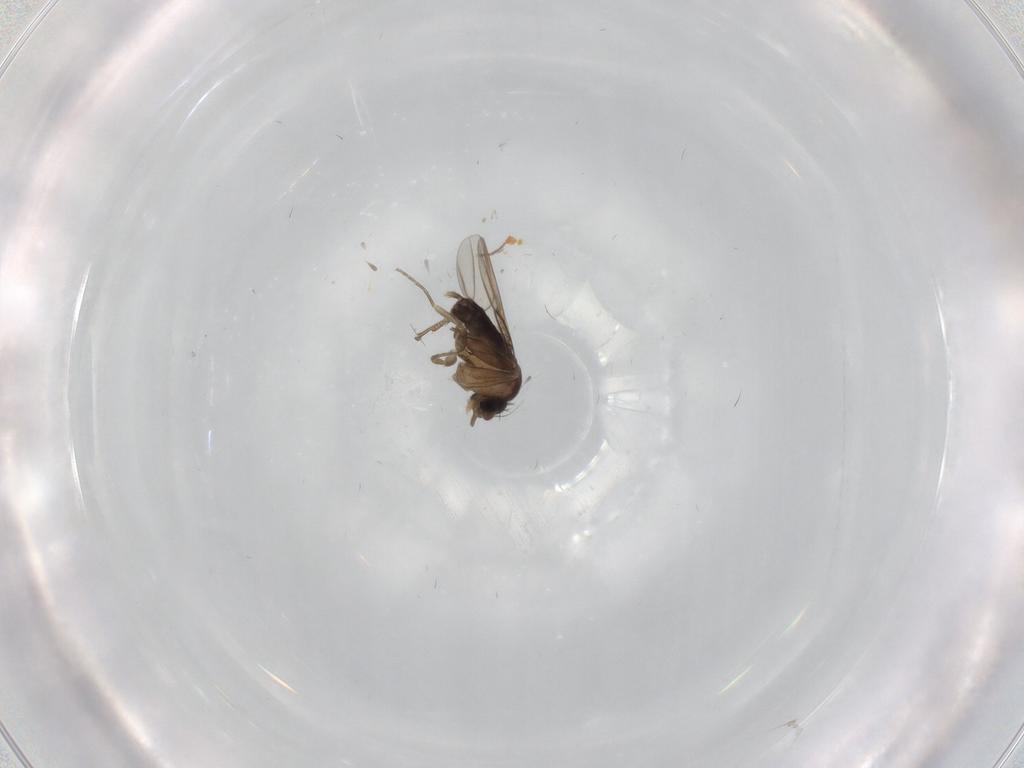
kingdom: Animalia
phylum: Arthropoda
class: Insecta
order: Diptera
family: Phoridae
